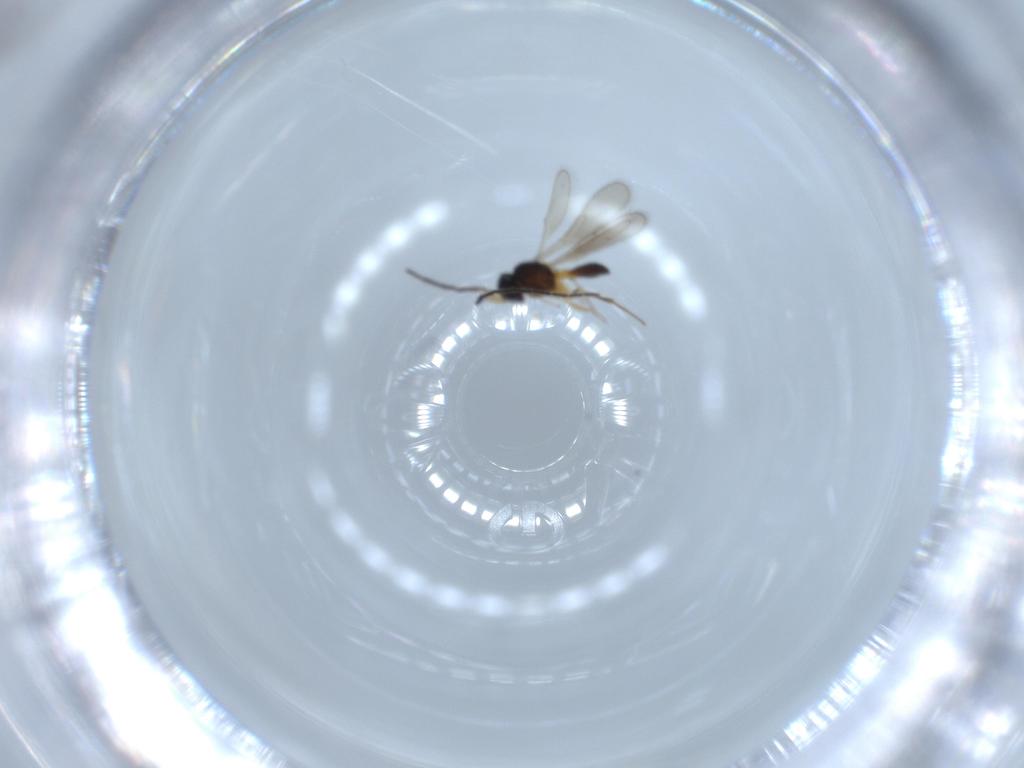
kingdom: Animalia
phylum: Arthropoda
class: Insecta
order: Hymenoptera
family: Scelionidae
